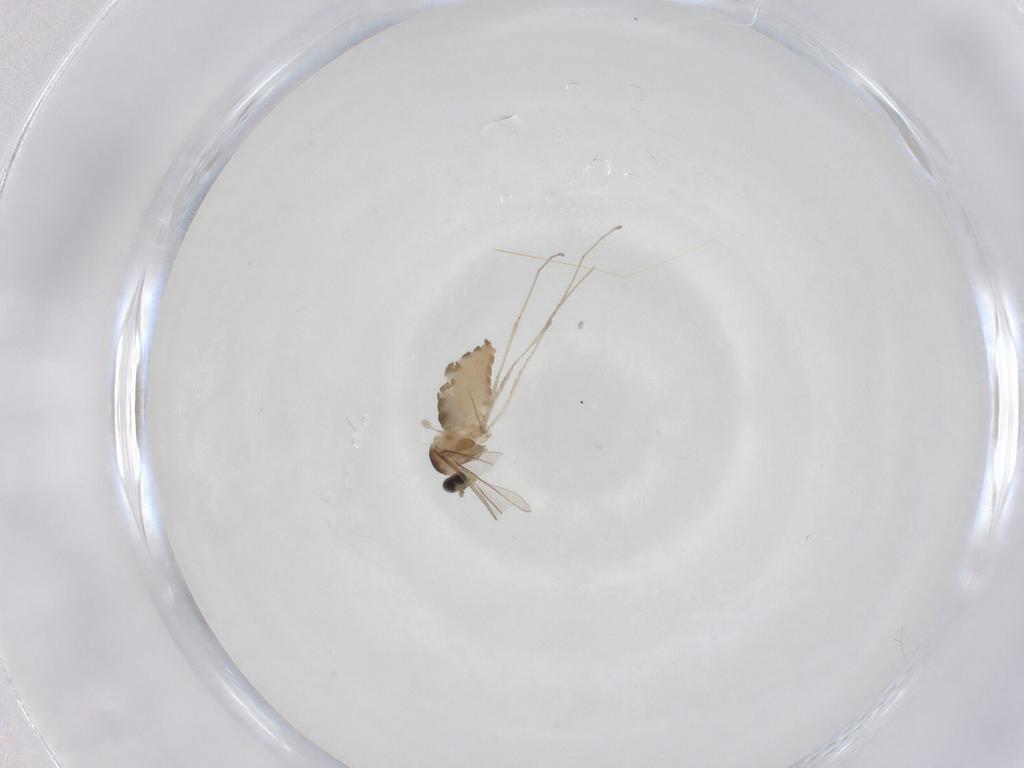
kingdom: Animalia
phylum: Arthropoda
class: Insecta
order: Diptera
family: Cecidomyiidae
